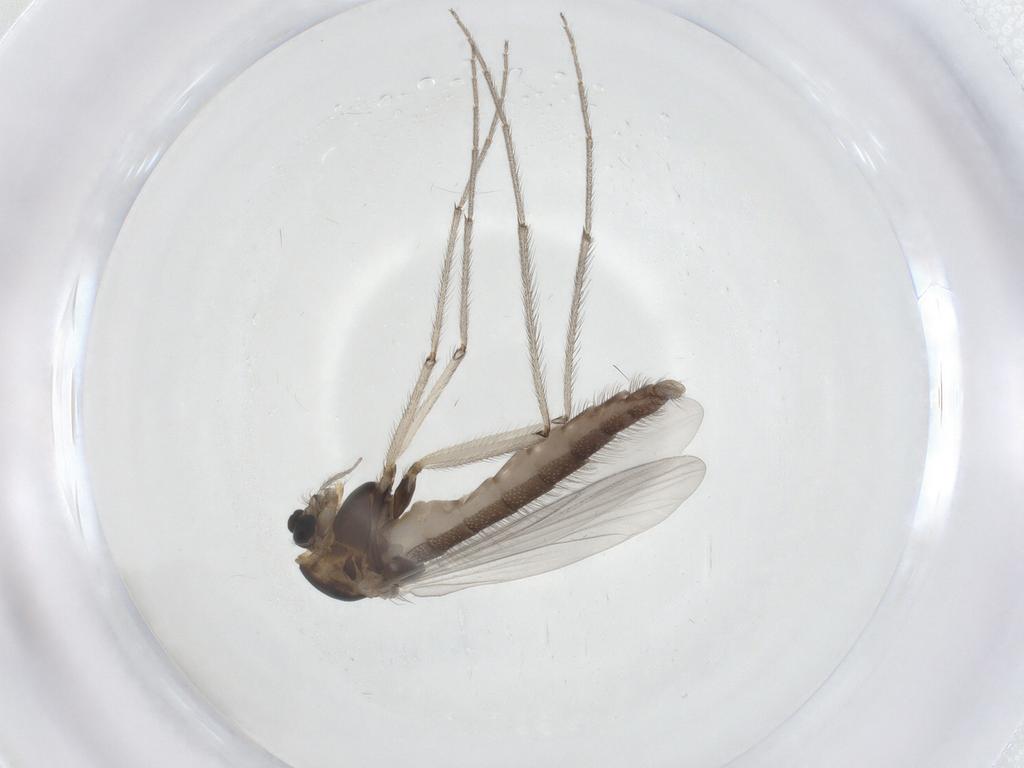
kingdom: Animalia
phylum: Arthropoda
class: Insecta
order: Diptera
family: Chironomidae
